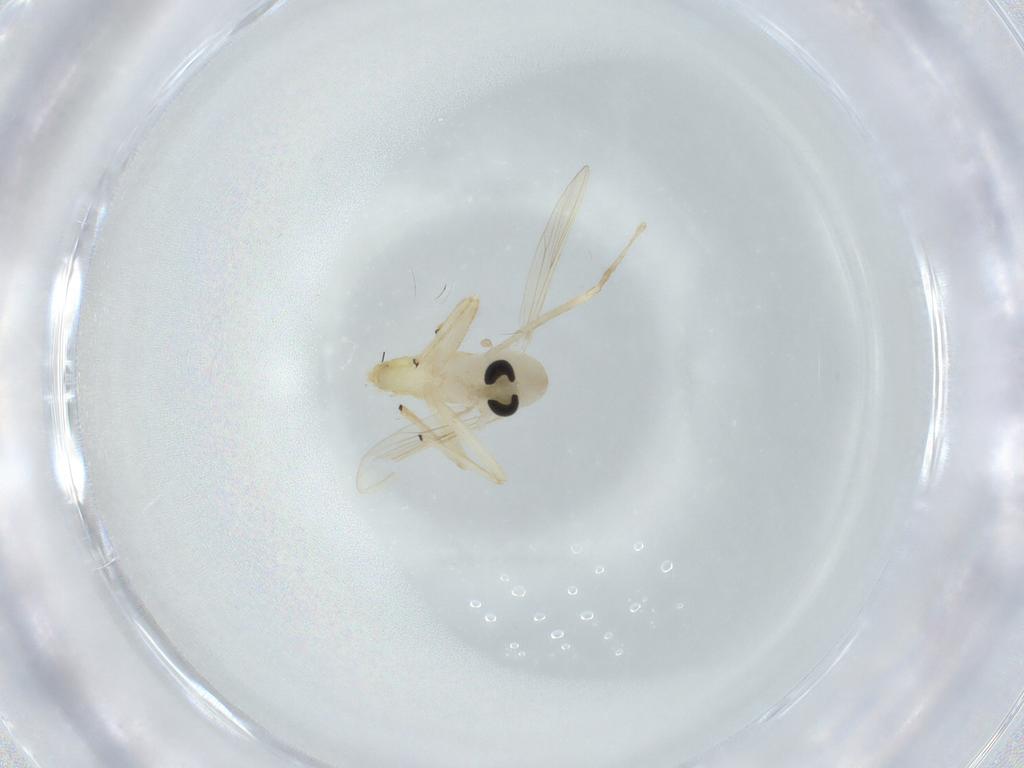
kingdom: Animalia
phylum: Arthropoda
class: Insecta
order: Diptera
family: Chironomidae
